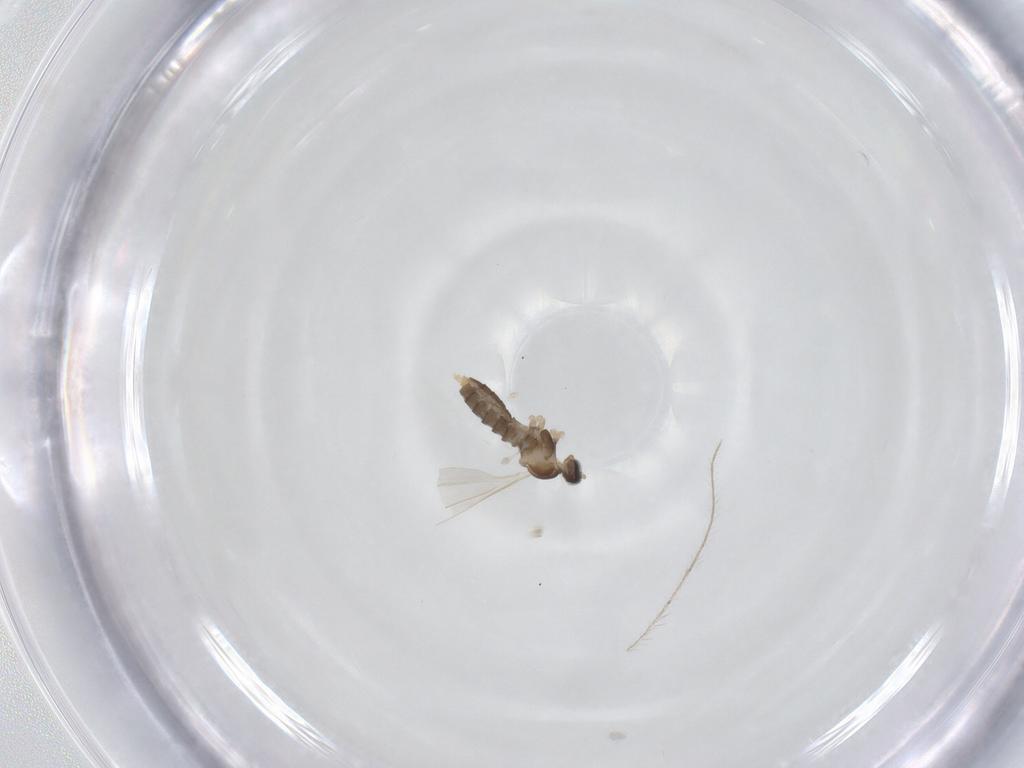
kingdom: Animalia
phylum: Arthropoda
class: Insecta
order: Diptera
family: Cecidomyiidae
